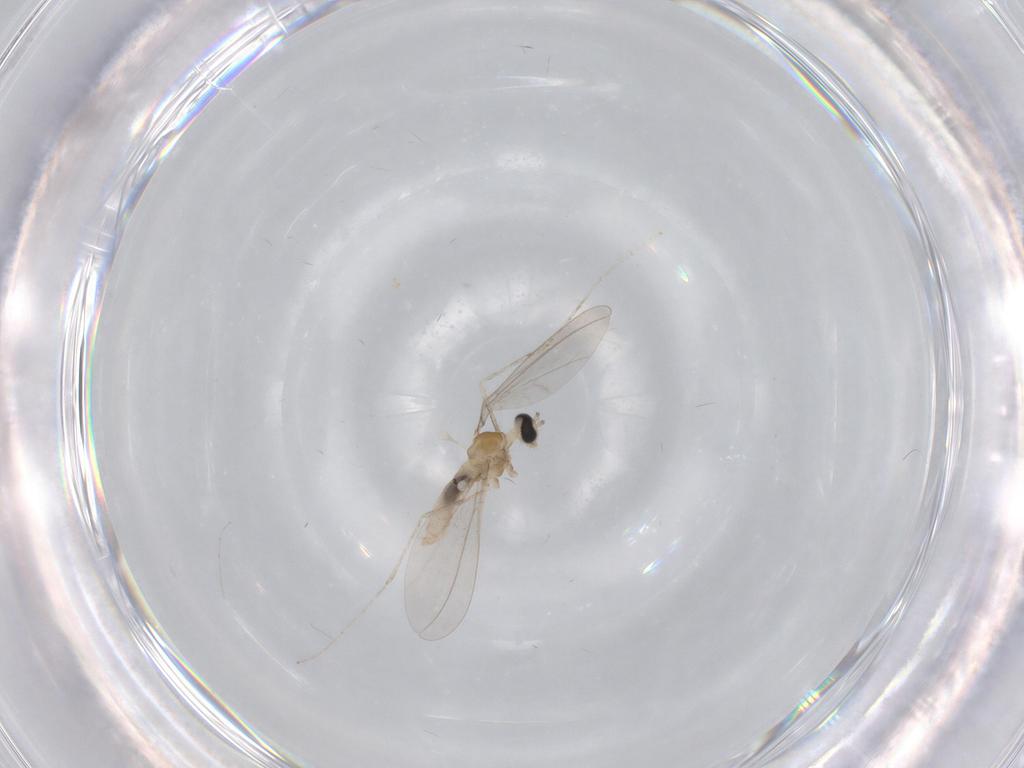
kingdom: Animalia
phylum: Arthropoda
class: Insecta
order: Diptera
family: Cecidomyiidae
